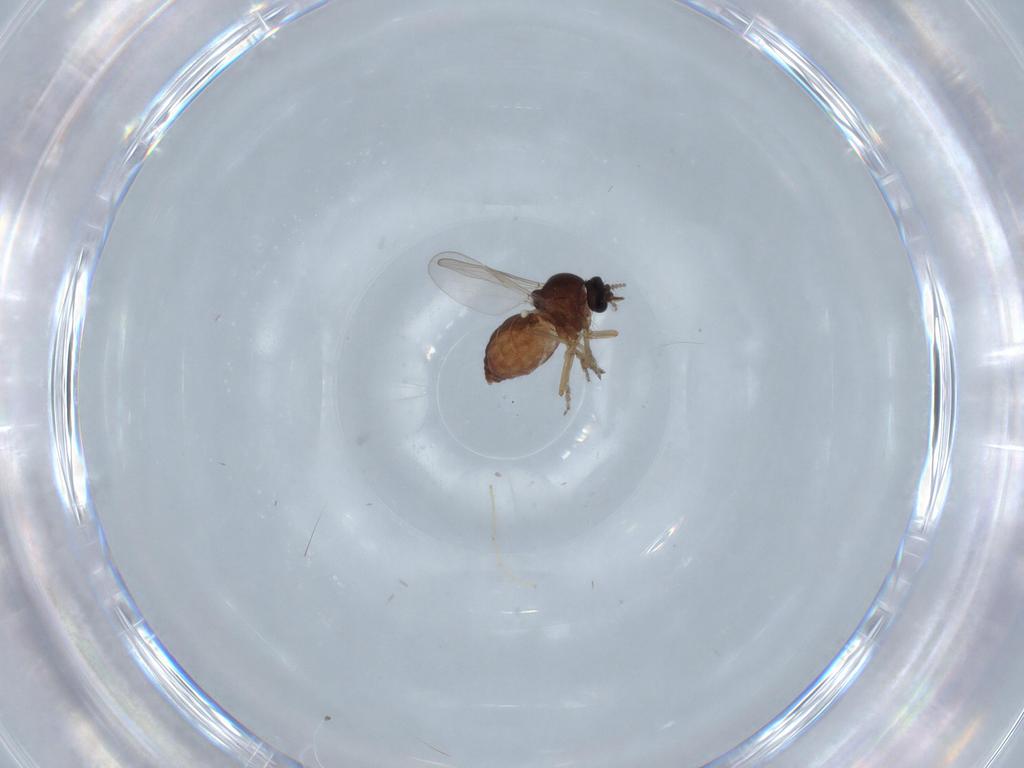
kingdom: Animalia
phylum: Arthropoda
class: Insecta
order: Diptera
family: Chironomidae
